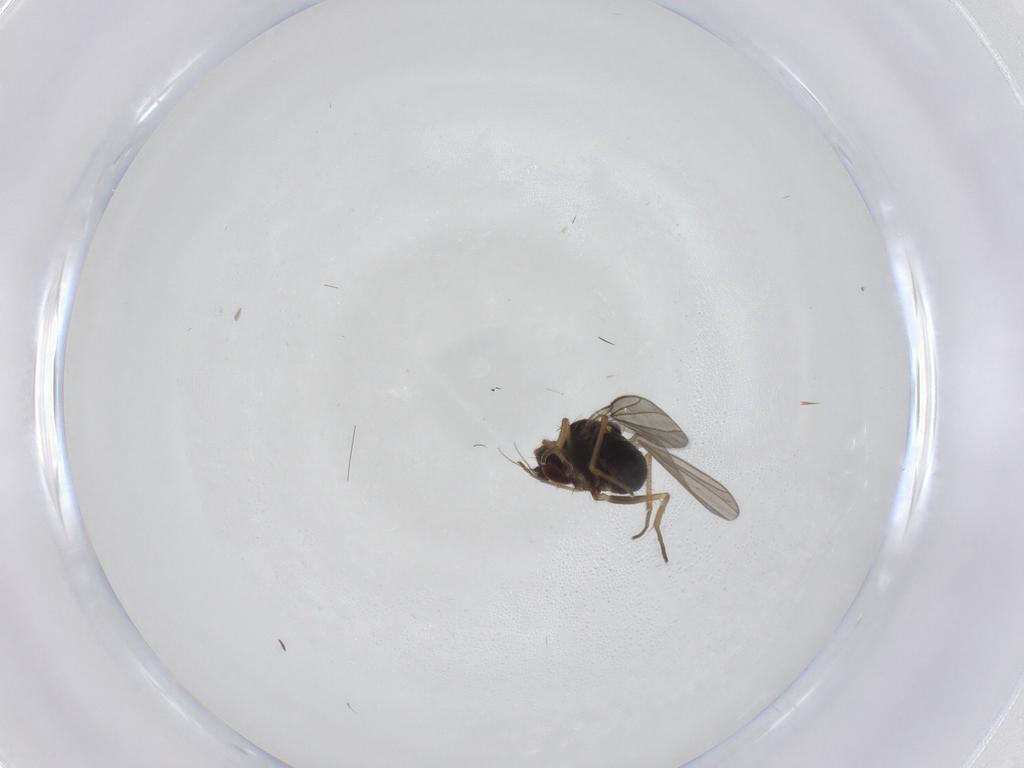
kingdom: Animalia
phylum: Arthropoda
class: Insecta
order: Diptera
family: Dolichopodidae
